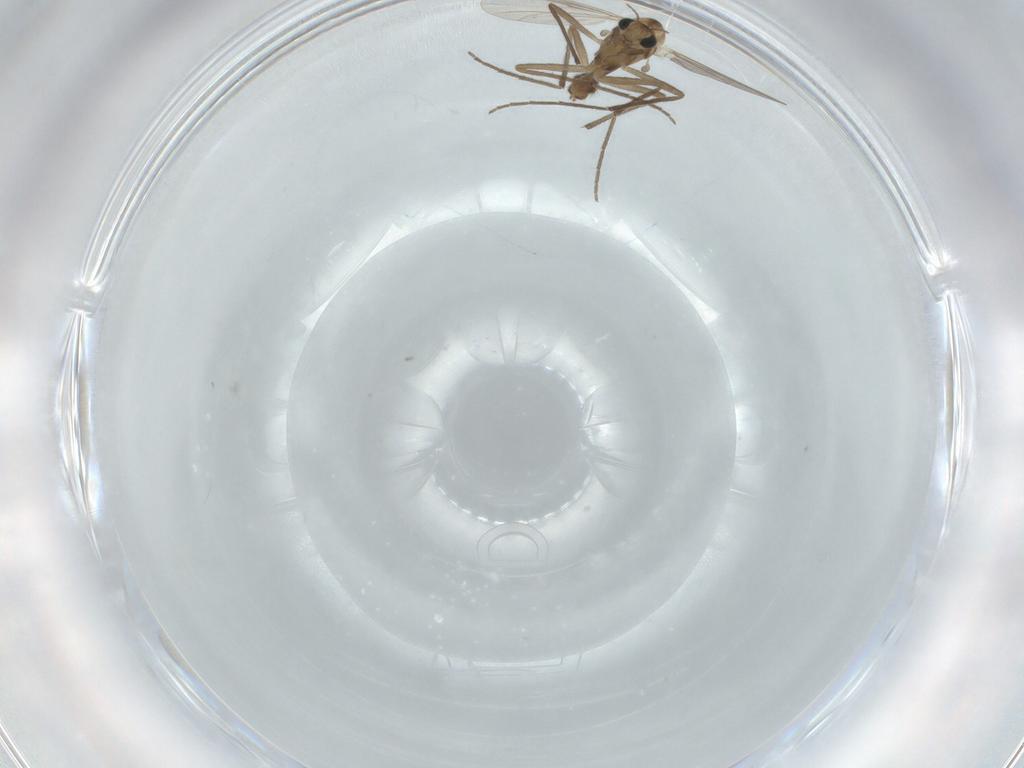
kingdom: Animalia
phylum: Arthropoda
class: Insecta
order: Diptera
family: Chironomidae
